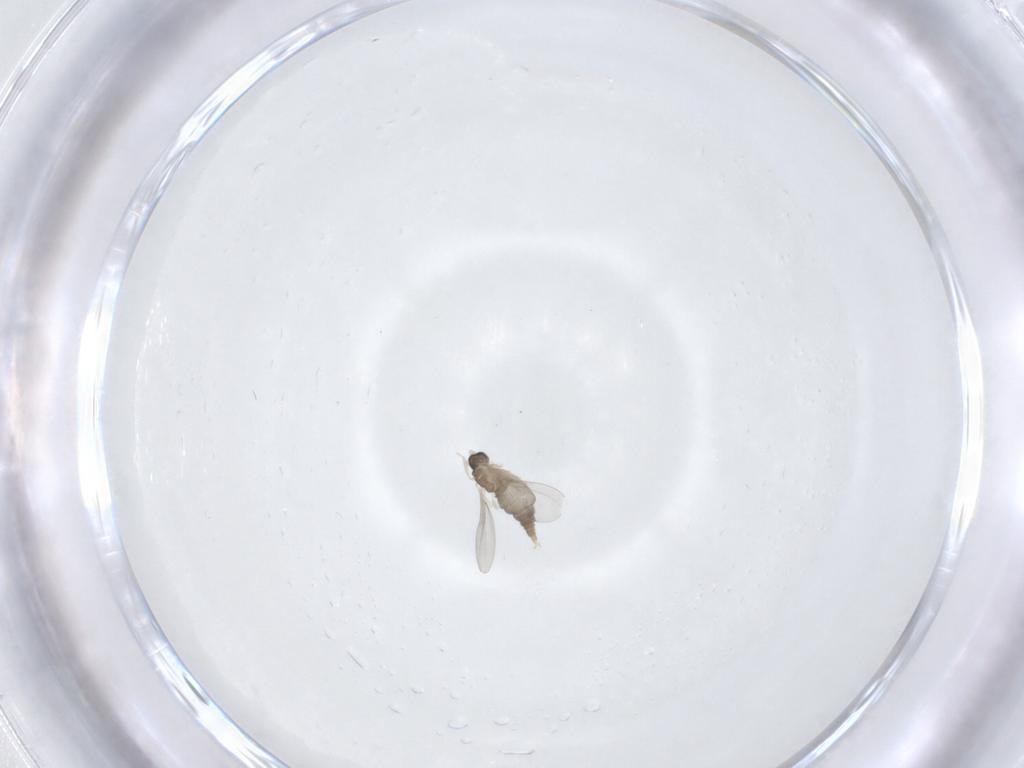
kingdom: Animalia
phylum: Arthropoda
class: Insecta
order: Diptera
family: Cecidomyiidae
